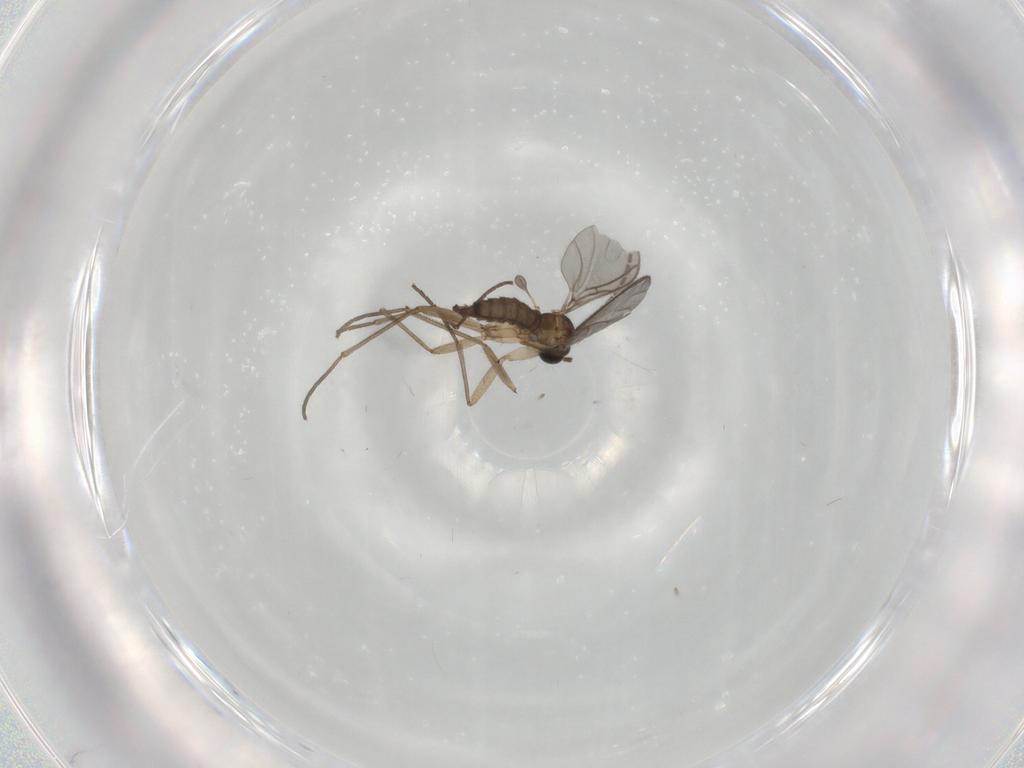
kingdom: Animalia
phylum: Arthropoda
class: Insecta
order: Diptera
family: Sciaridae
